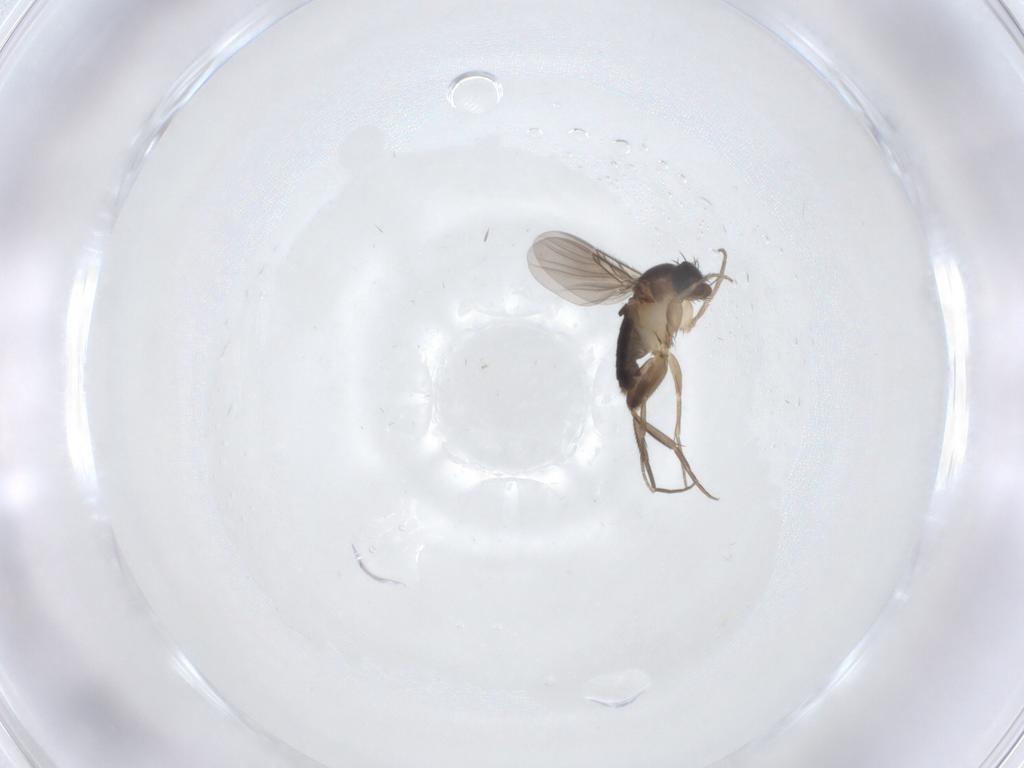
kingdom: Animalia
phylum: Arthropoda
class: Insecta
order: Diptera
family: Phoridae
